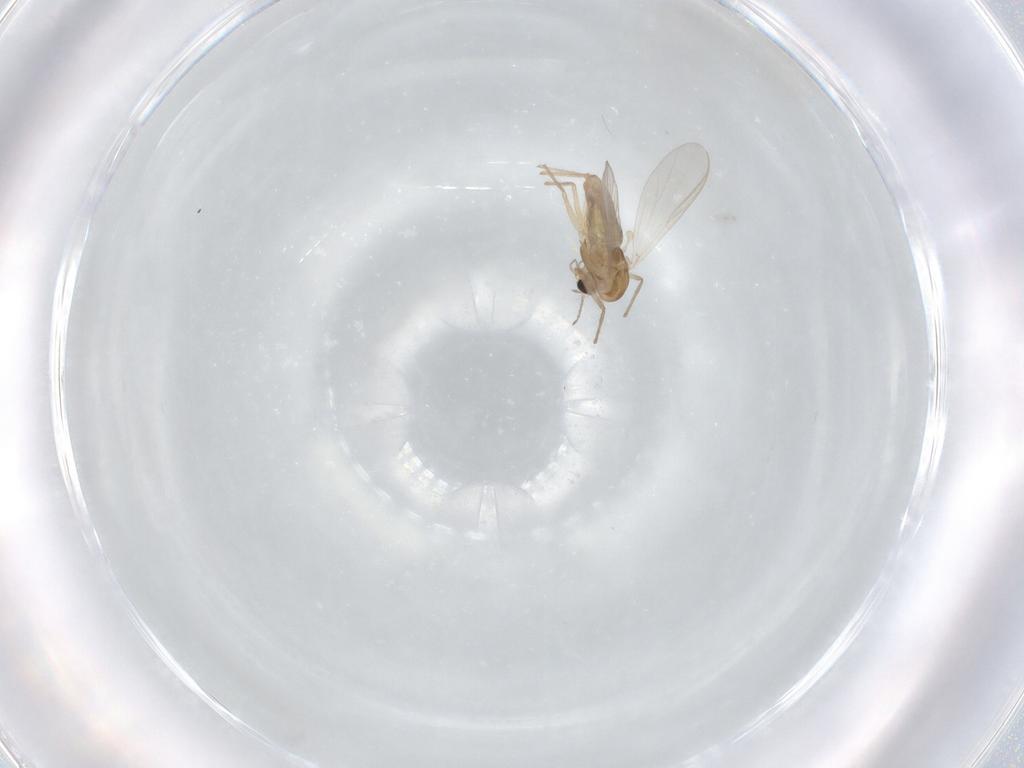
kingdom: Animalia
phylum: Arthropoda
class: Insecta
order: Diptera
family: Chironomidae
